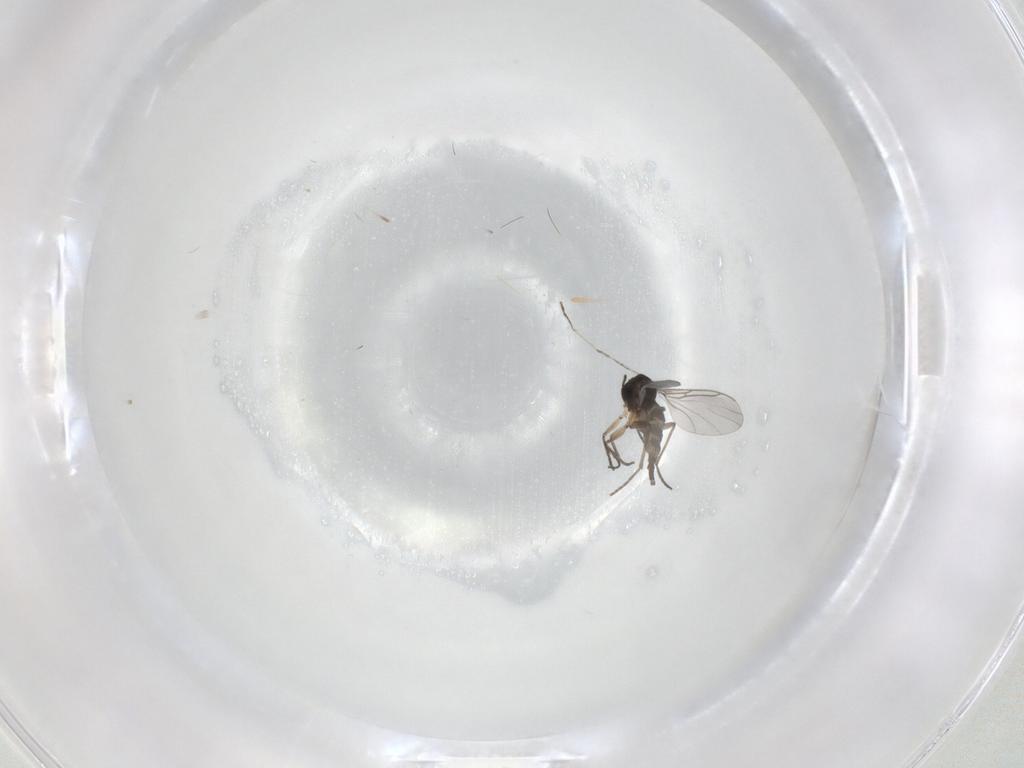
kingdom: Animalia
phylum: Arthropoda
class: Insecta
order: Diptera
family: Sciaridae
